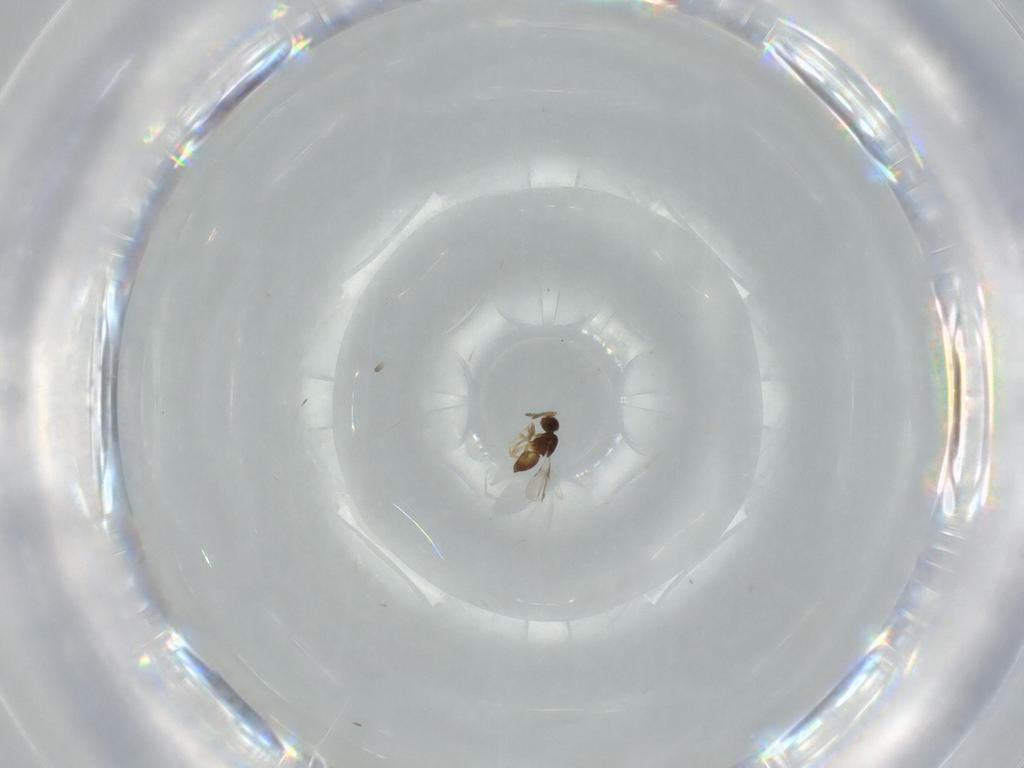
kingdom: Animalia
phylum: Arthropoda
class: Insecta
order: Hymenoptera
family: Formicidae
